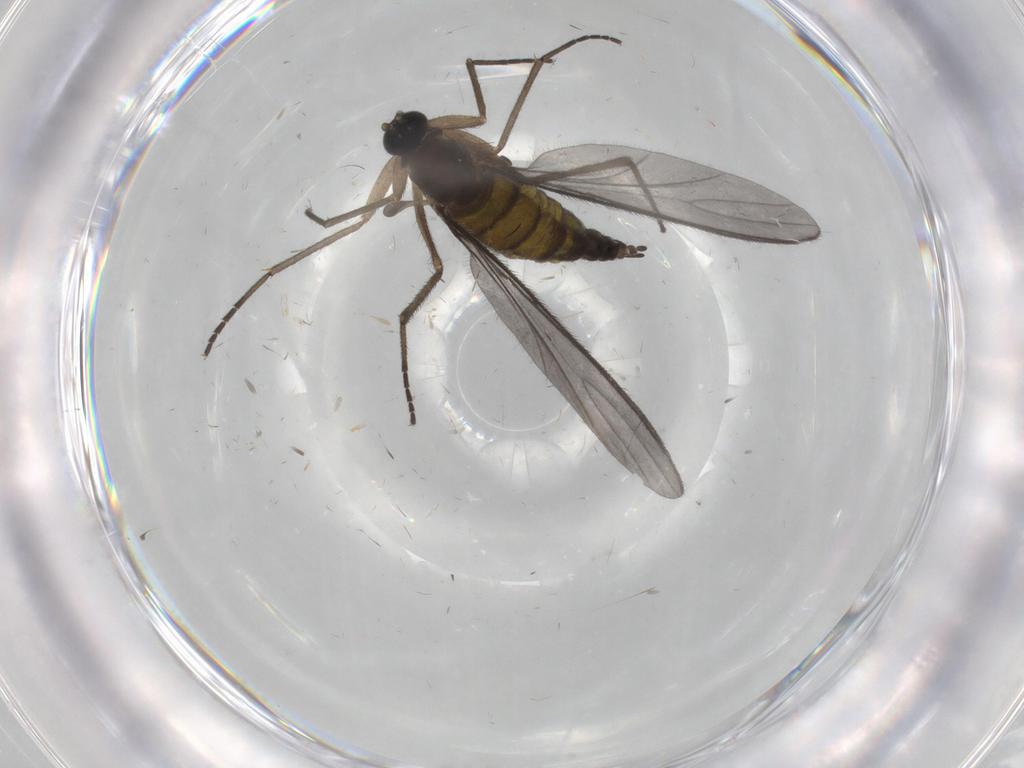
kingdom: Animalia
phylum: Arthropoda
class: Insecta
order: Diptera
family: Sciaridae
